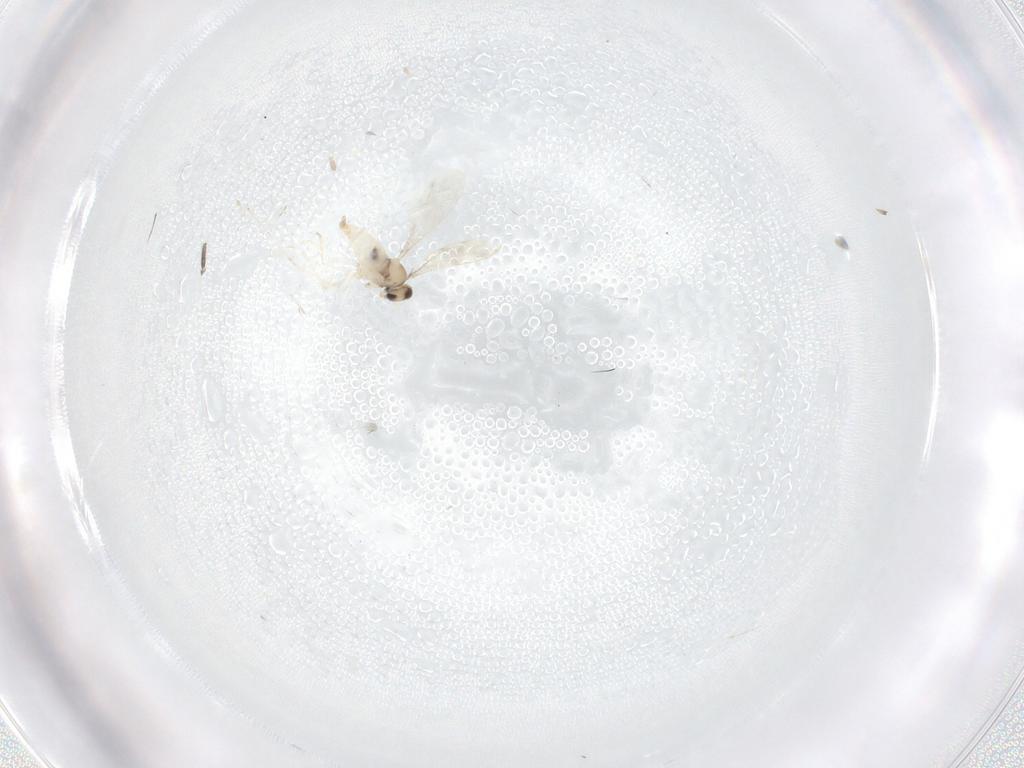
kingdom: Animalia
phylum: Arthropoda
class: Insecta
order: Diptera
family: Cecidomyiidae
